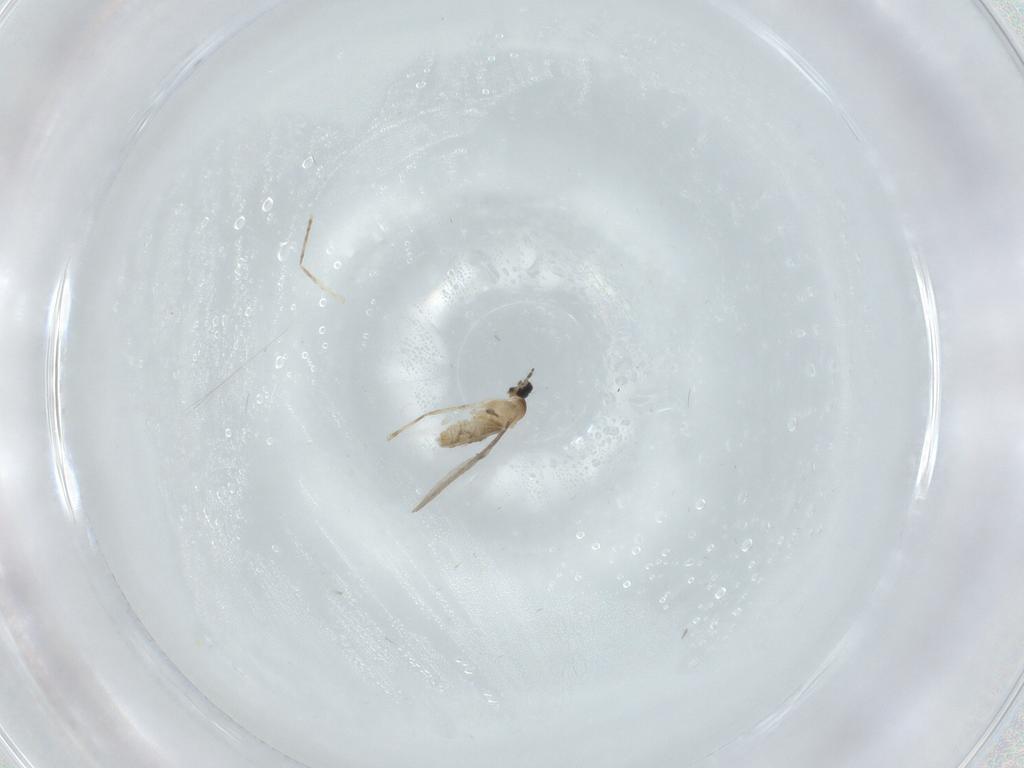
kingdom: Animalia
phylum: Arthropoda
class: Insecta
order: Diptera
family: Cecidomyiidae
